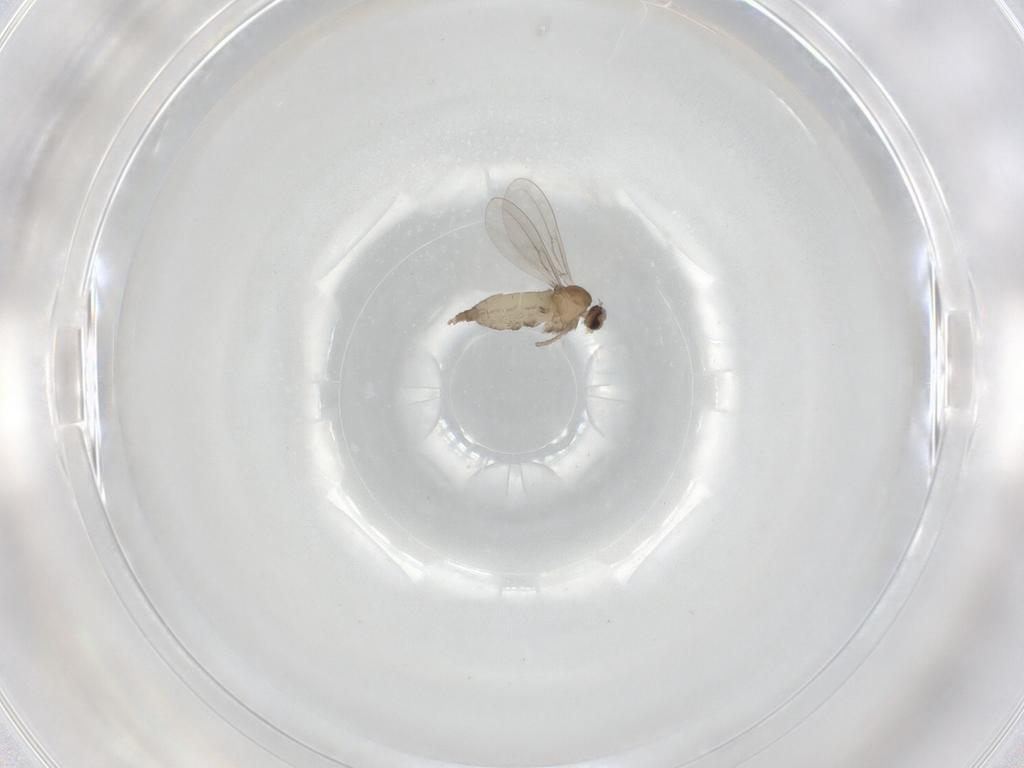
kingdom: Animalia
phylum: Arthropoda
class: Insecta
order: Diptera
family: Cecidomyiidae
